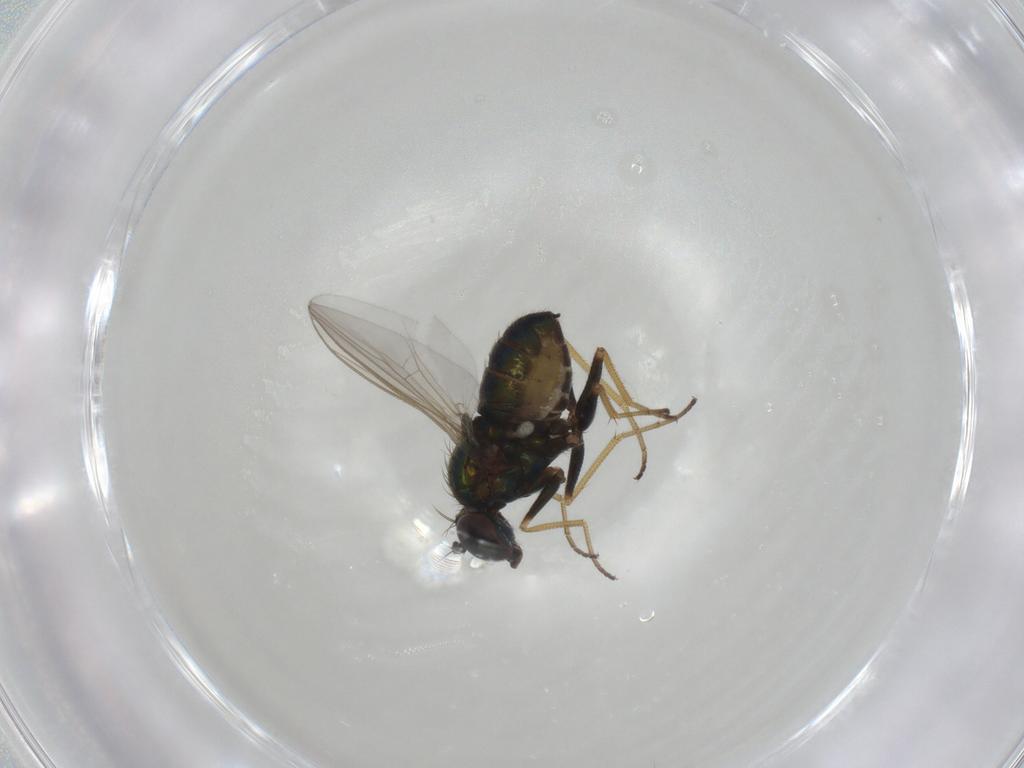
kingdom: Animalia
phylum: Arthropoda
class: Insecta
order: Diptera
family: Dolichopodidae
